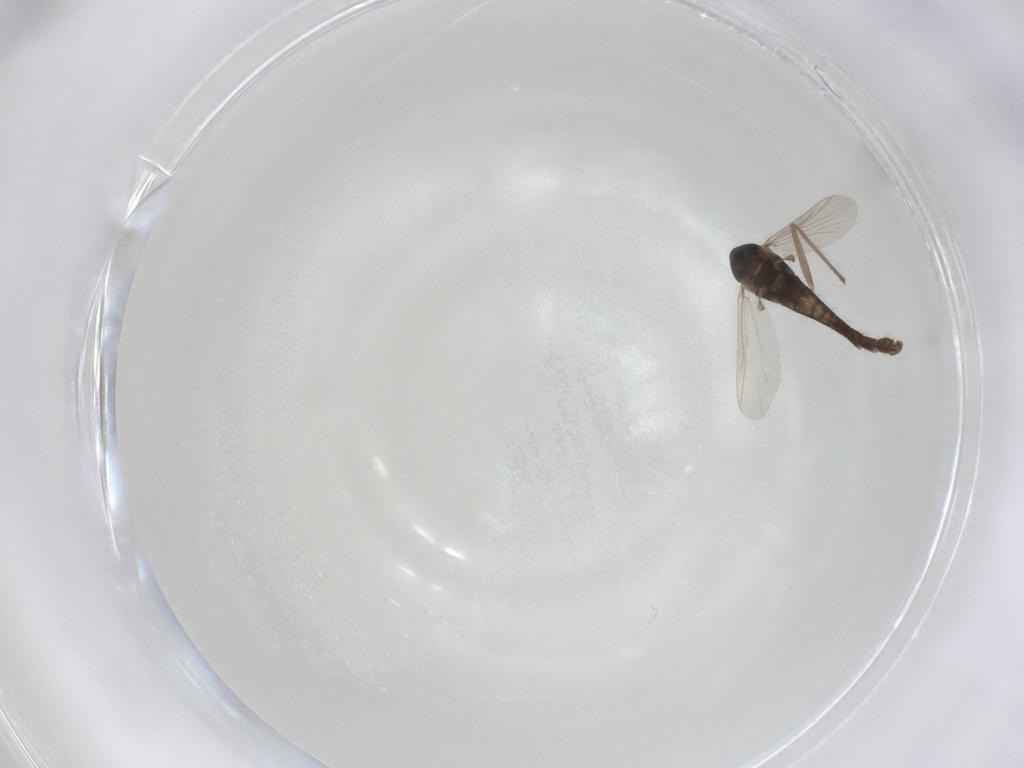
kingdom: Animalia
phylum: Arthropoda
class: Insecta
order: Diptera
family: Chironomidae
